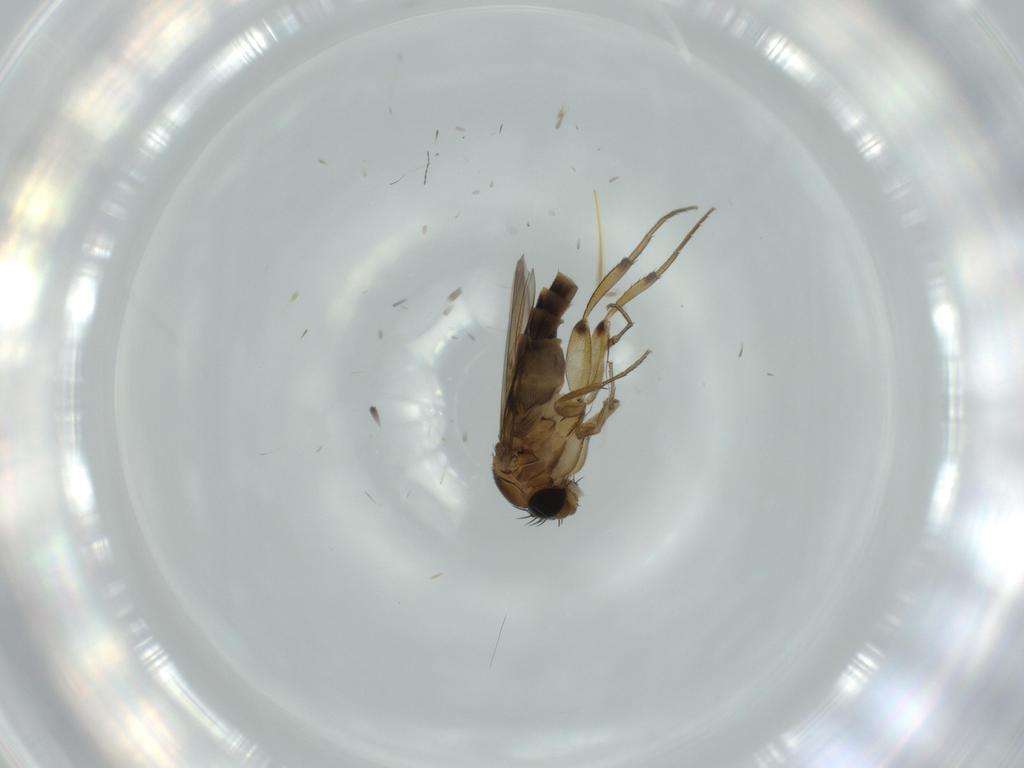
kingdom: Animalia
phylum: Arthropoda
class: Insecta
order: Diptera
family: Phoridae
